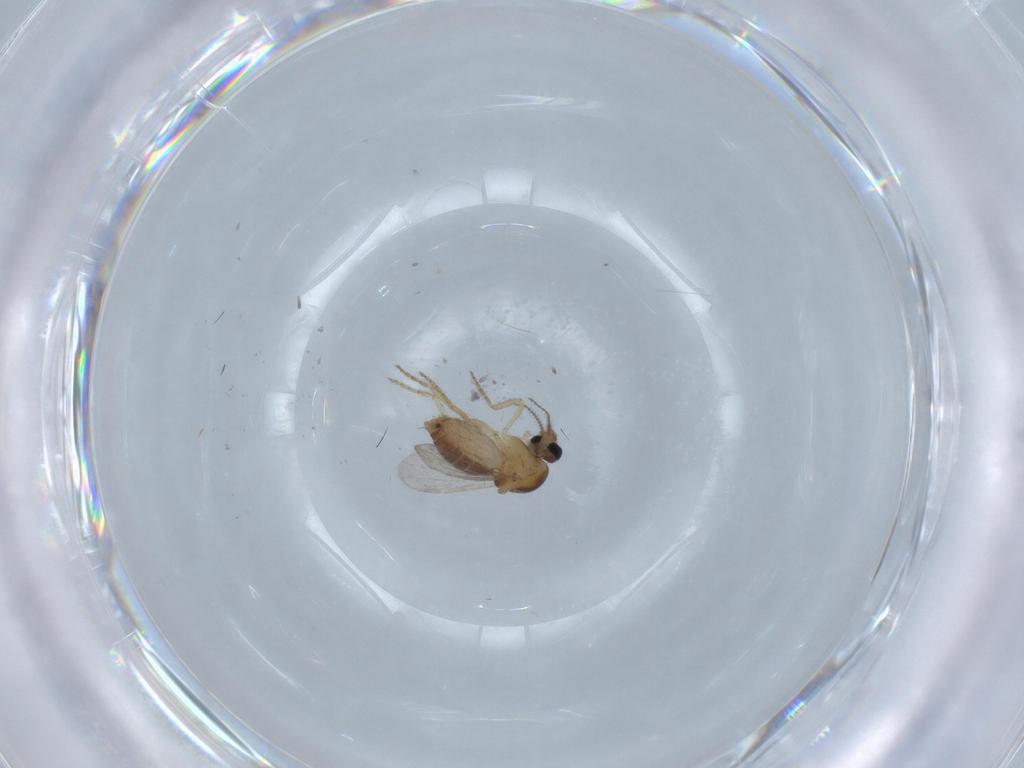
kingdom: Animalia
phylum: Arthropoda
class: Insecta
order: Diptera
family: Ceratopogonidae
